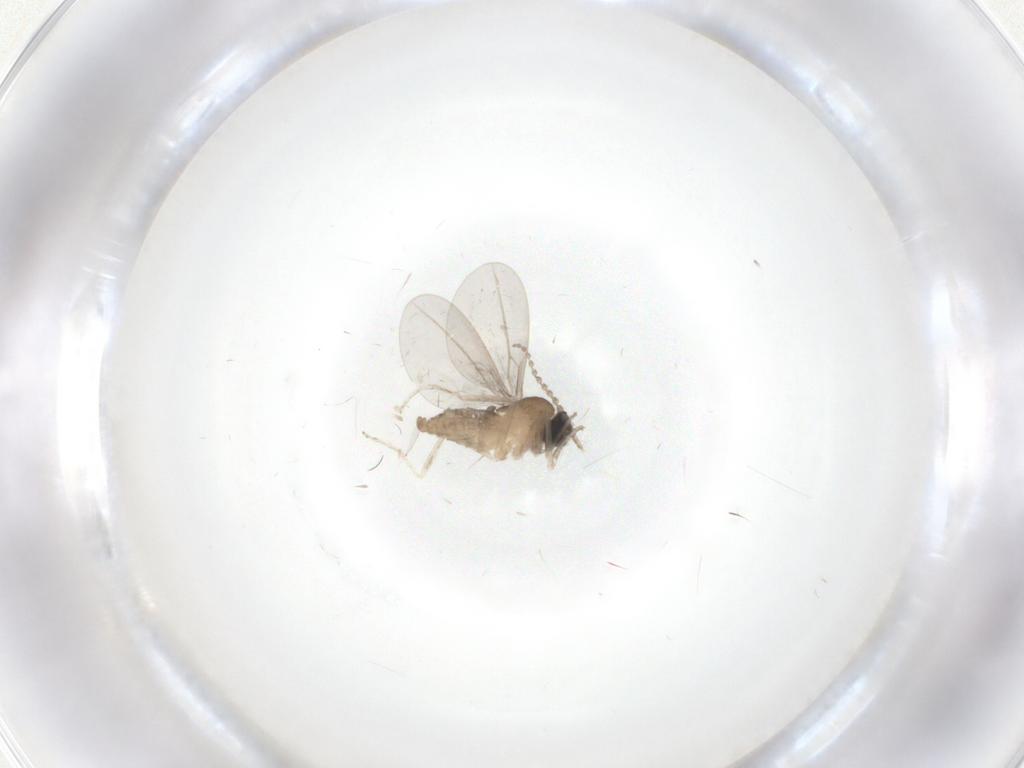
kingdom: Animalia
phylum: Arthropoda
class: Insecta
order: Diptera
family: Cecidomyiidae
